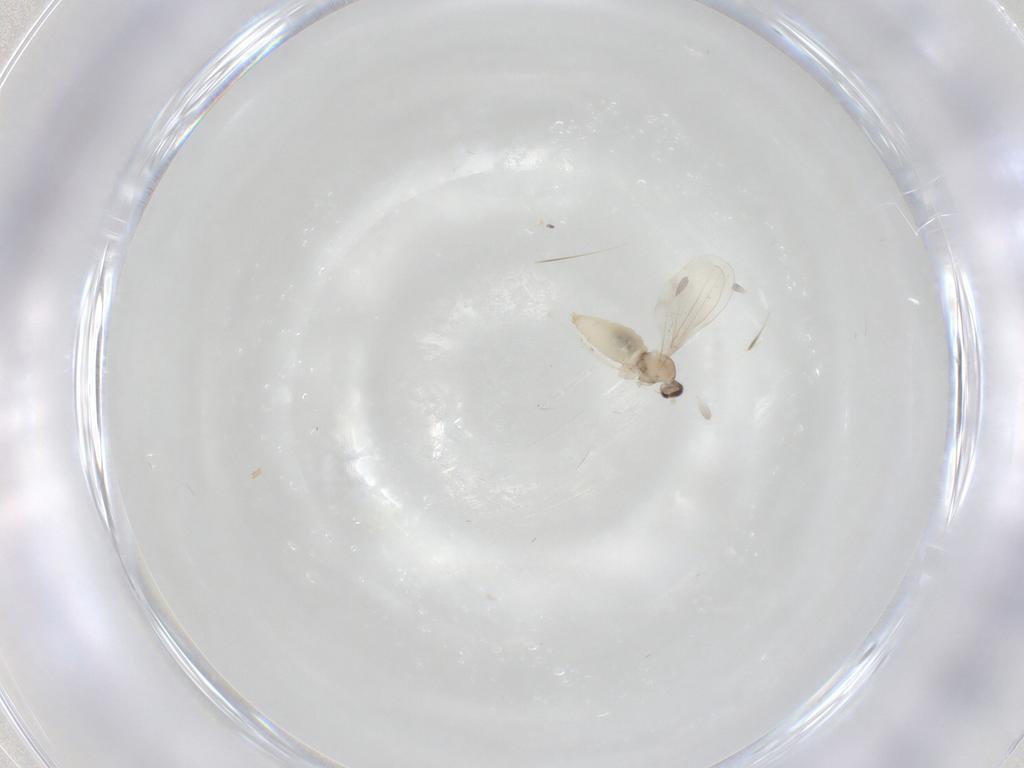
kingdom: Animalia
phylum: Arthropoda
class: Insecta
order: Diptera
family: Cecidomyiidae
